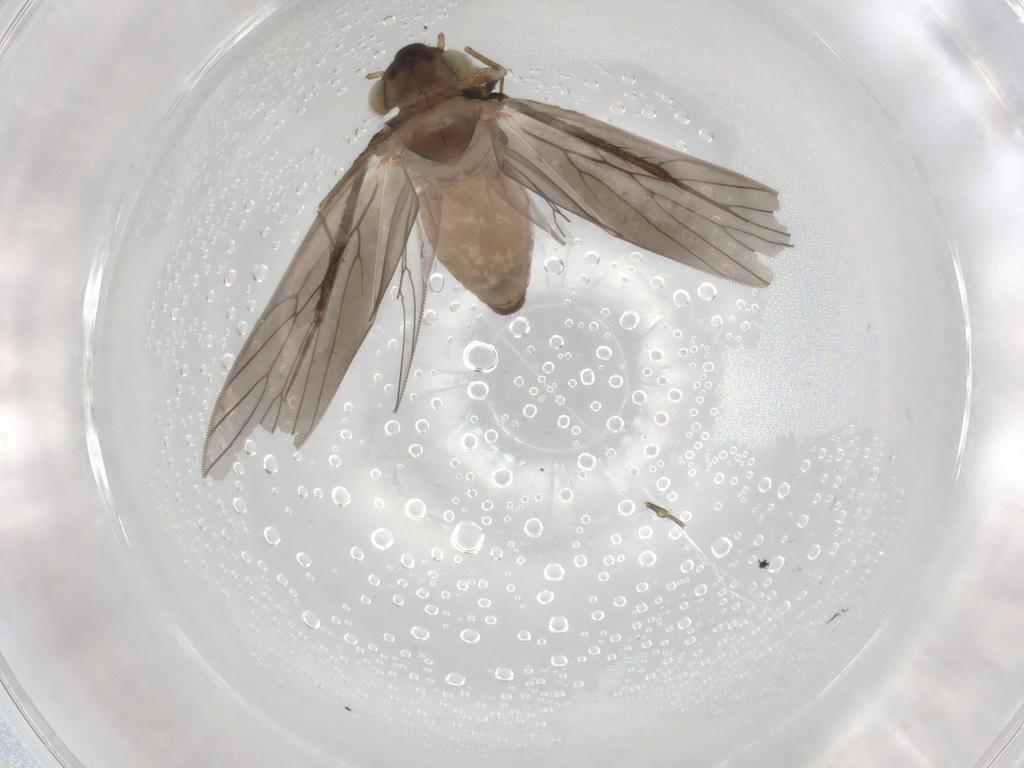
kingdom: Animalia
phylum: Arthropoda
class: Insecta
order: Psocodea
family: Lepidopsocidae
